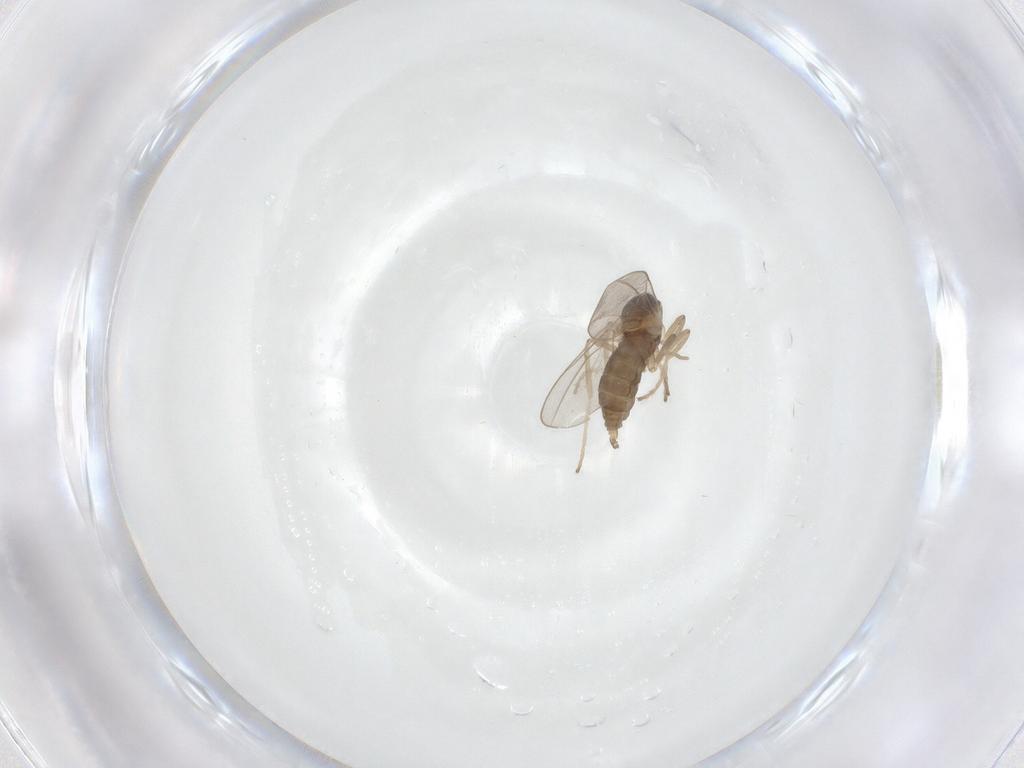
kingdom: Animalia
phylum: Arthropoda
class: Insecta
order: Diptera
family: Cecidomyiidae
